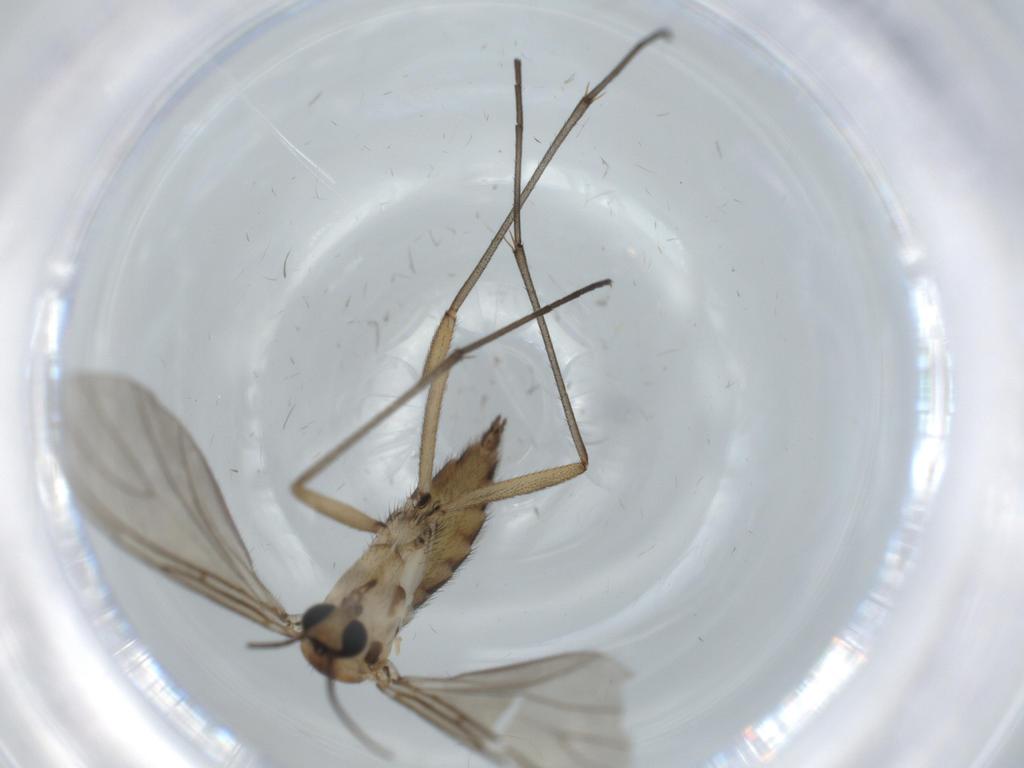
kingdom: Animalia
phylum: Arthropoda
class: Insecta
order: Diptera
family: Sciaridae
